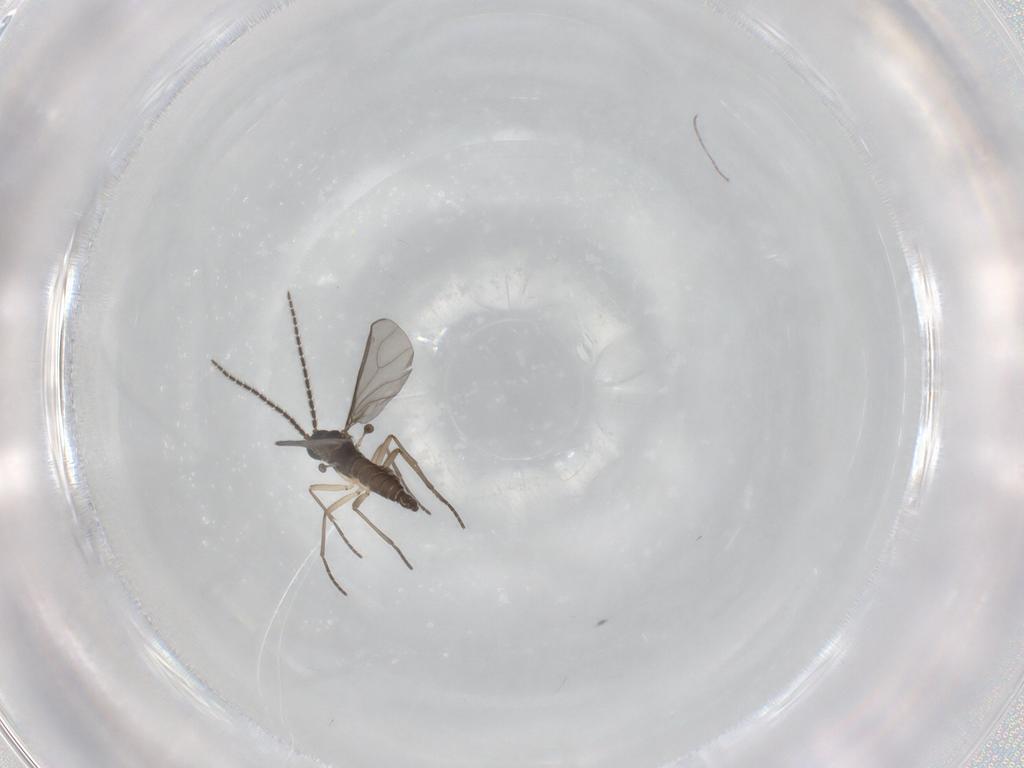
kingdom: Animalia
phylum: Arthropoda
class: Insecta
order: Diptera
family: Sciaridae
